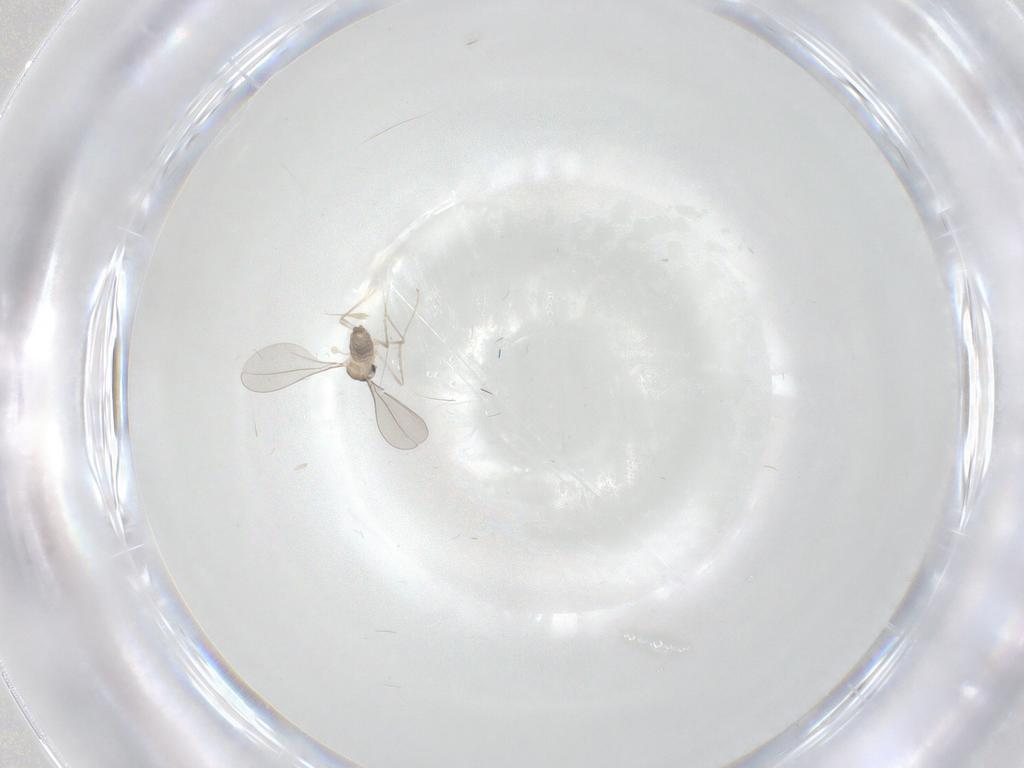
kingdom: Animalia
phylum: Arthropoda
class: Insecta
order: Diptera
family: Cecidomyiidae
